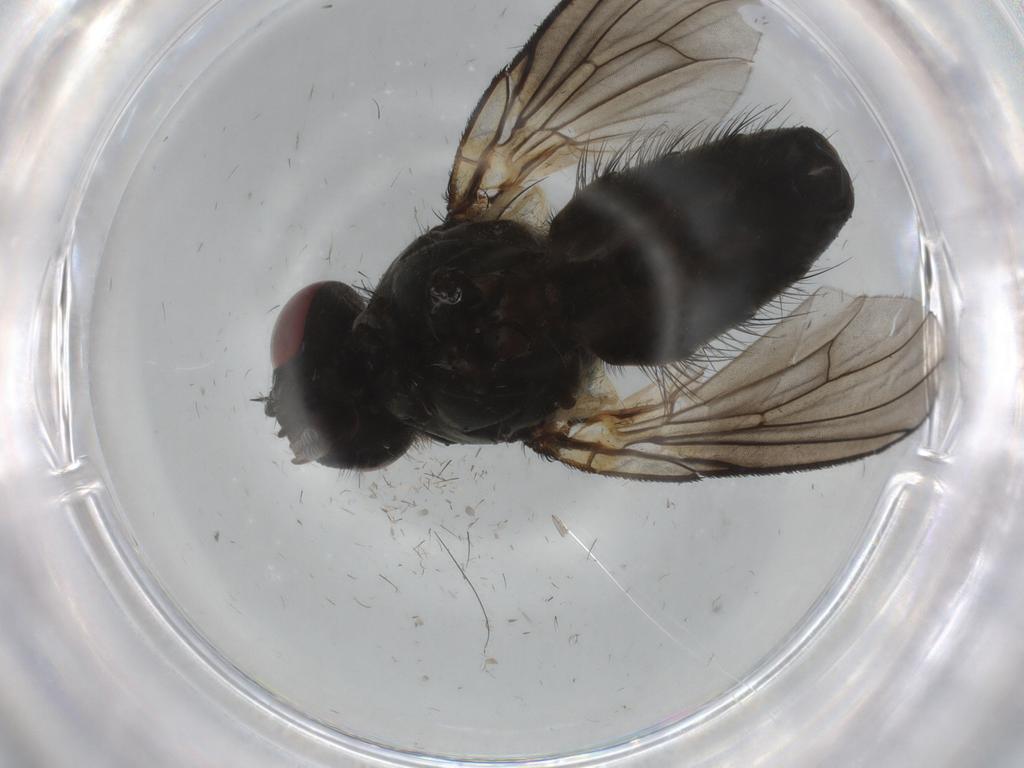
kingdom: Animalia
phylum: Arthropoda
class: Insecta
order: Diptera
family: Muscidae
